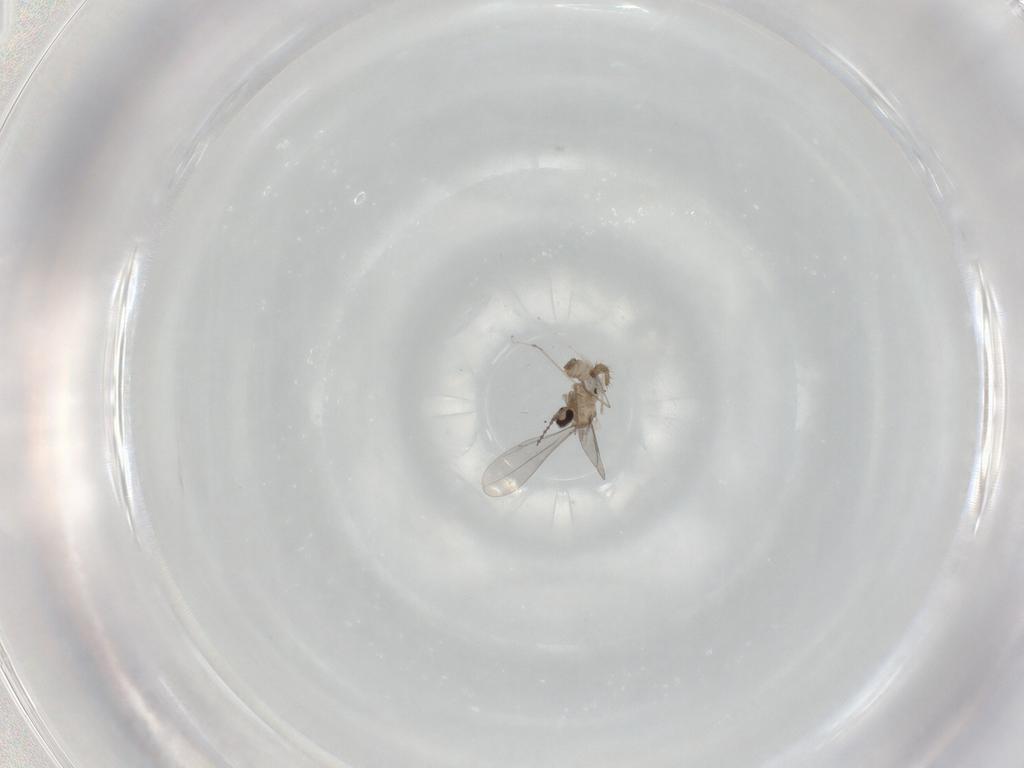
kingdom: Animalia
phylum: Arthropoda
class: Insecta
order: Diptera
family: Cecidomyiidae
